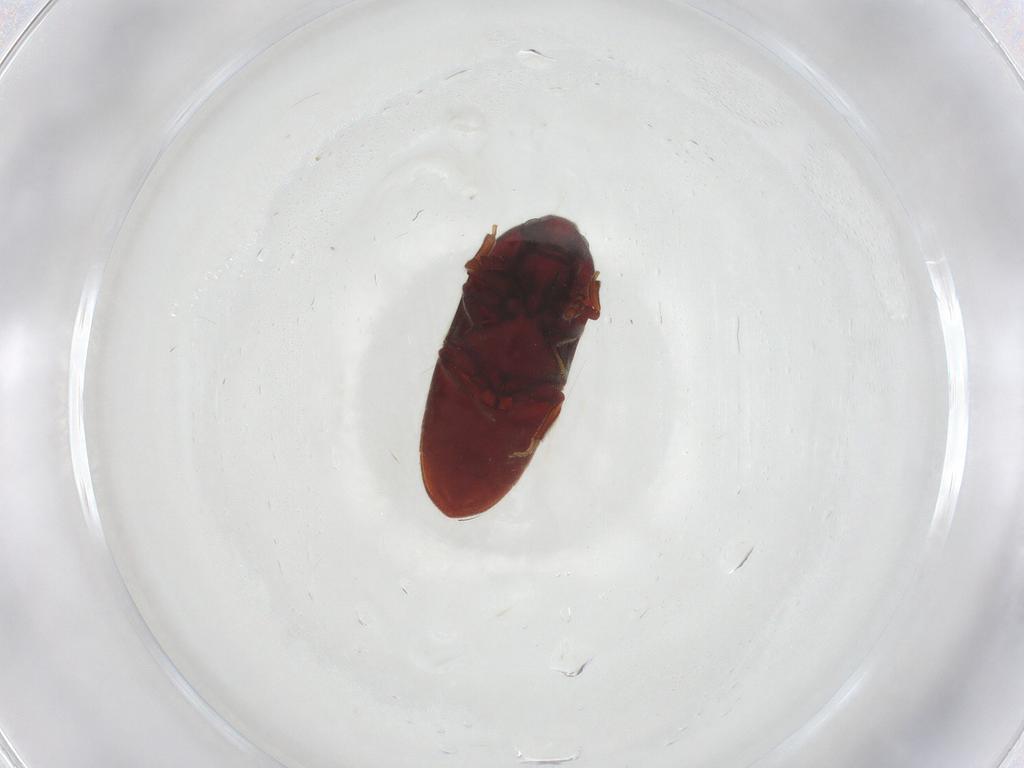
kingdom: Animalia
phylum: Arthropoda
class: Insecta
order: Coleoptera
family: Throscidae
